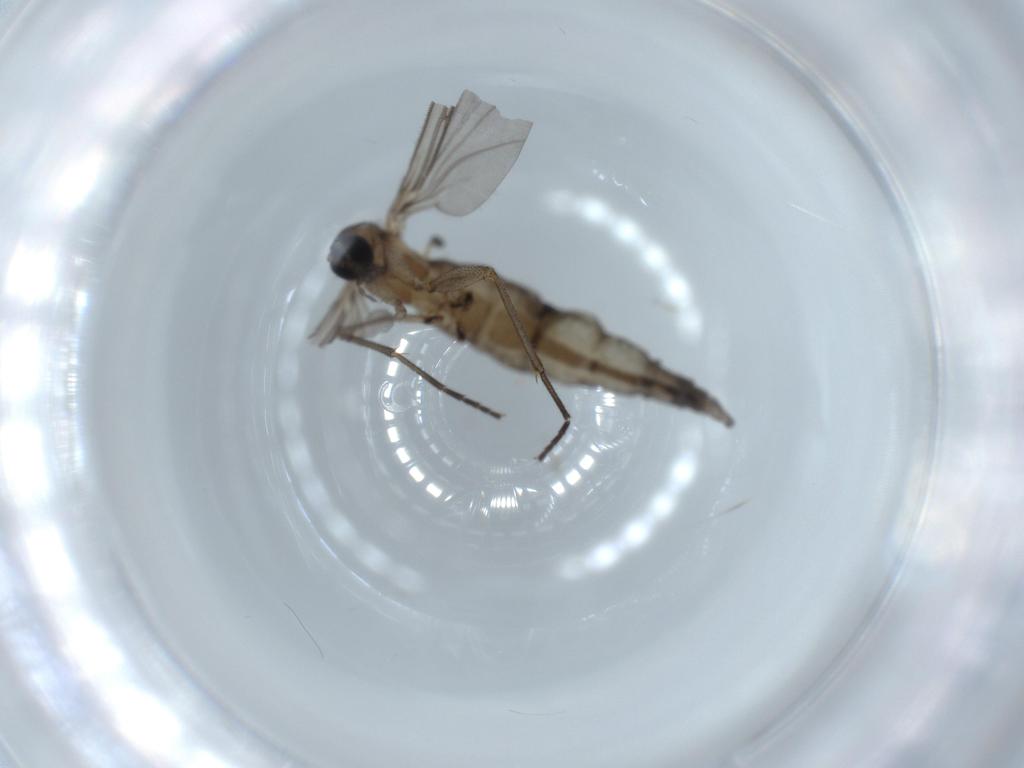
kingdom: Animalia
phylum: Arthropoda
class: Insecta
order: Diptera
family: Sciaridae
